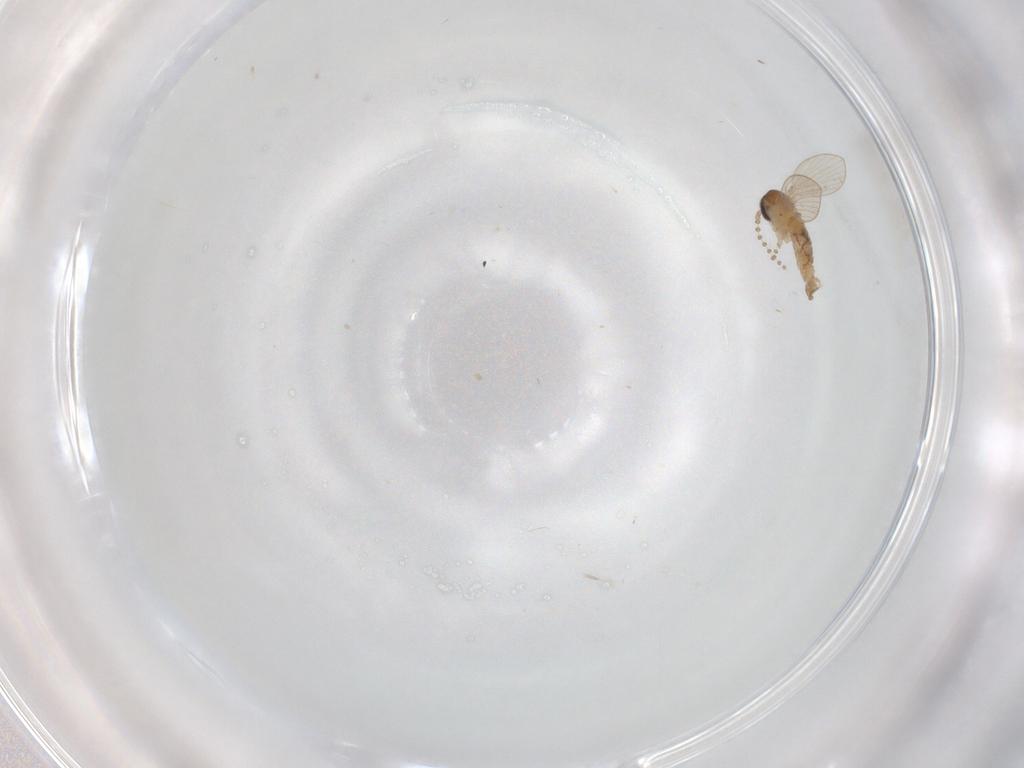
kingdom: Animalia
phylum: Arthropoda
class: Insecta
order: Diptera
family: Psychodidae
